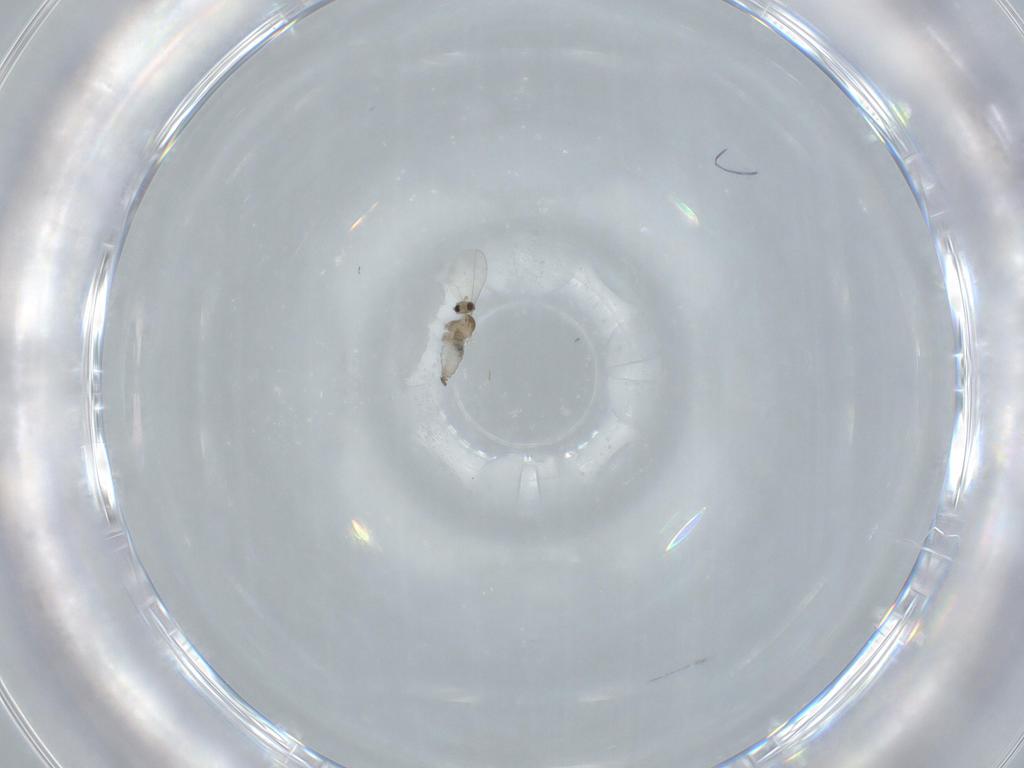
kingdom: Animalia
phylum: Arthropoda
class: Insecta
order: Diptera
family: Cecidomyiidae
